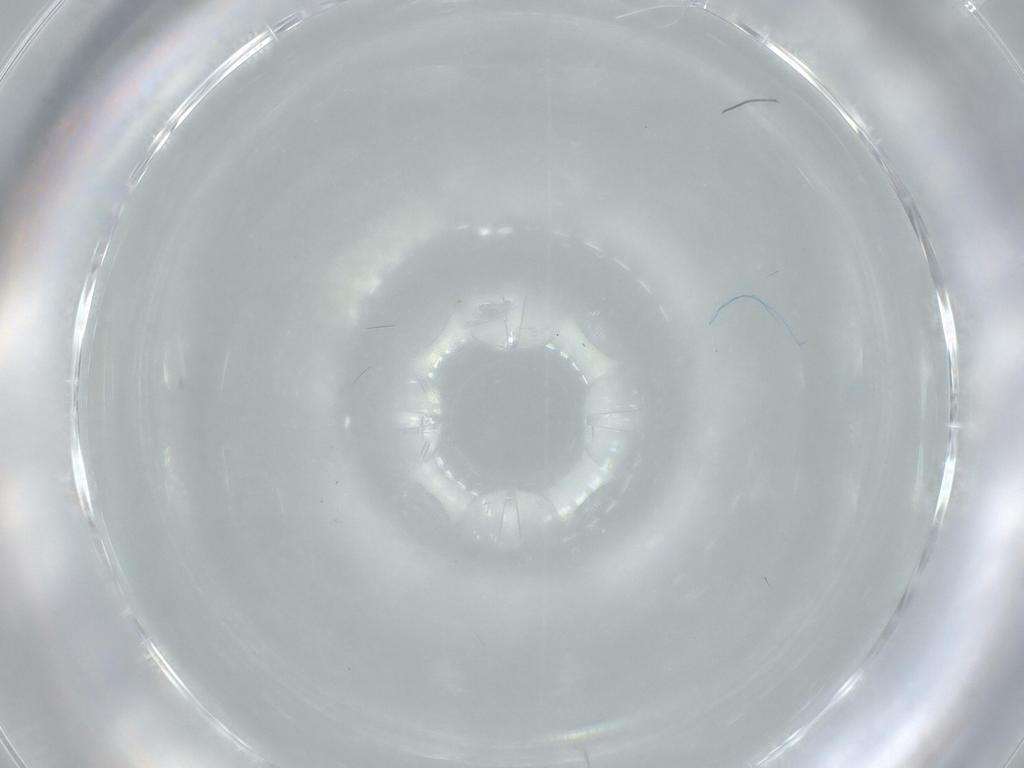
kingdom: Animalia
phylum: Arthropoda
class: Insecta
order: Diptera
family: Cecidomyiidae
